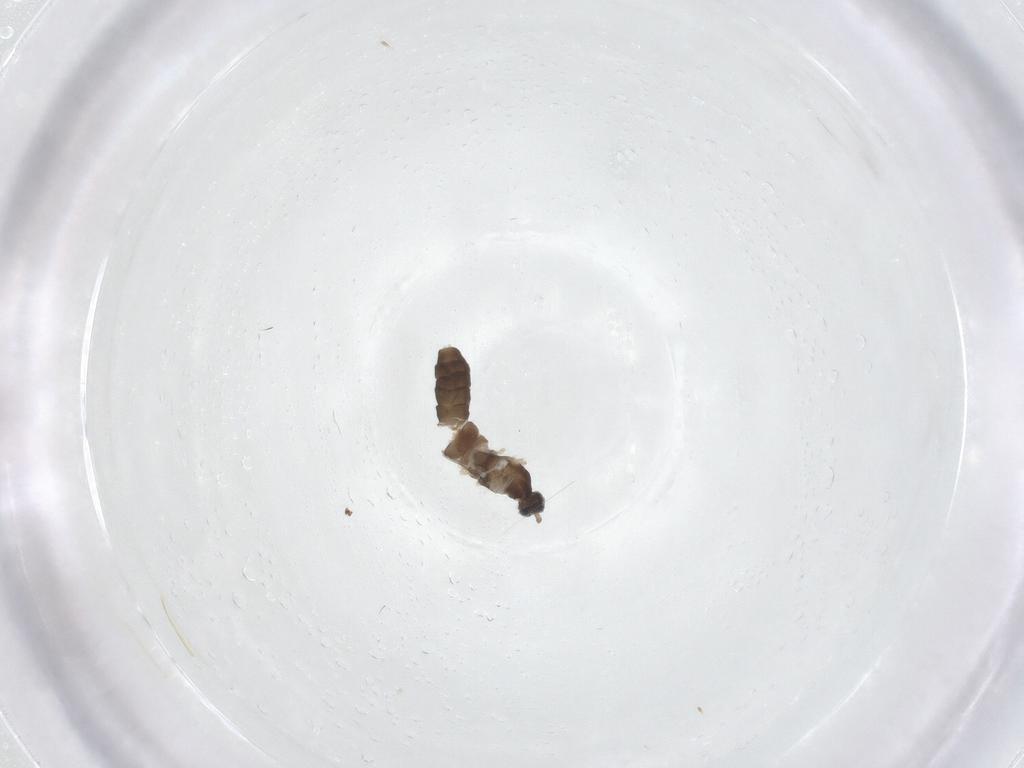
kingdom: Animalia
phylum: Arthropoda
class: Insecta
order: Diptera
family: Cecidomyiidae
